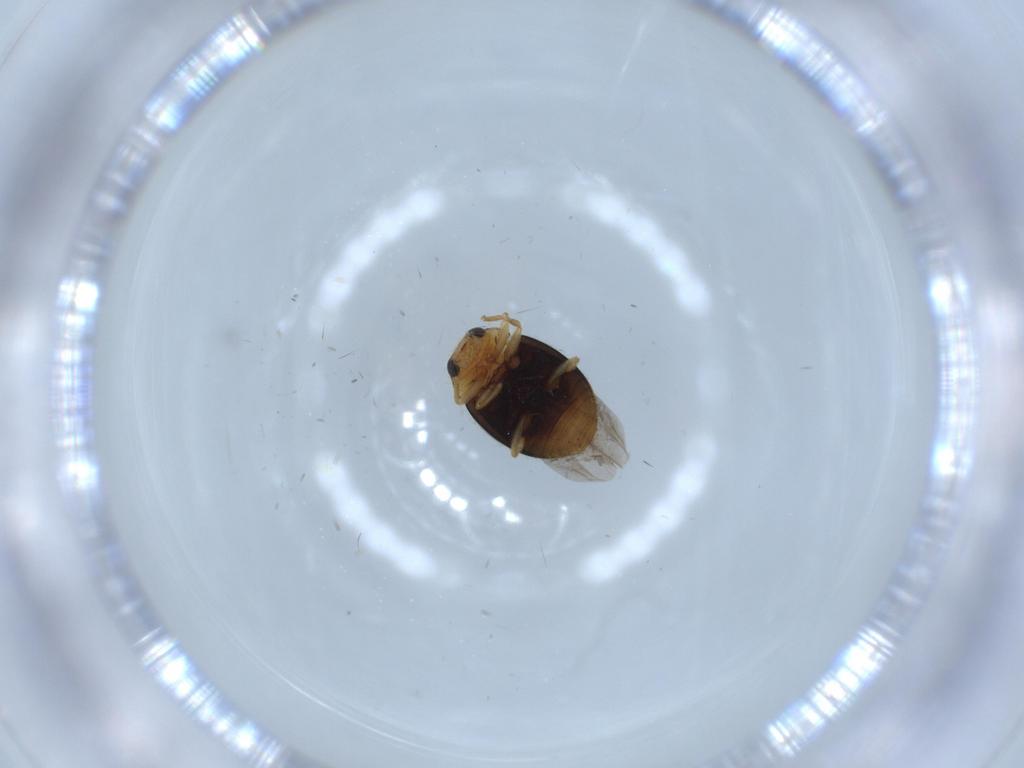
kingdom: Animalia
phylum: Arthropoda
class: Insecta
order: Coleoptera
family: Coccinellidae
